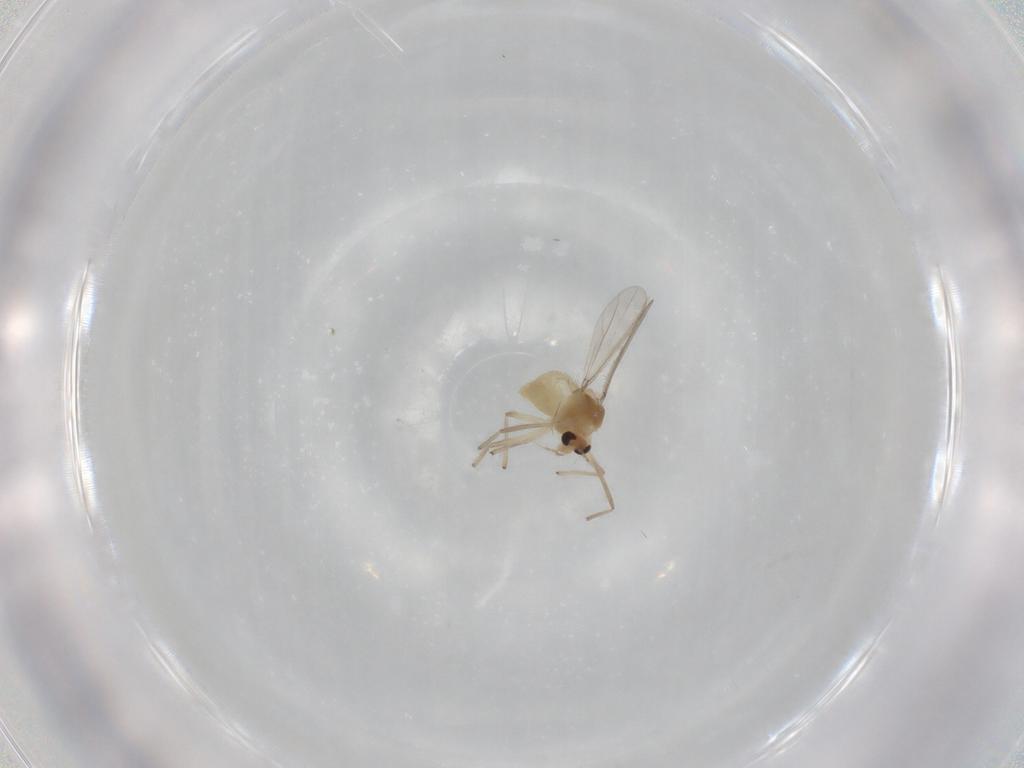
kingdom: Animalia
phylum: Arthropoda
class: Insecta
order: Diptera
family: Chironomidae
